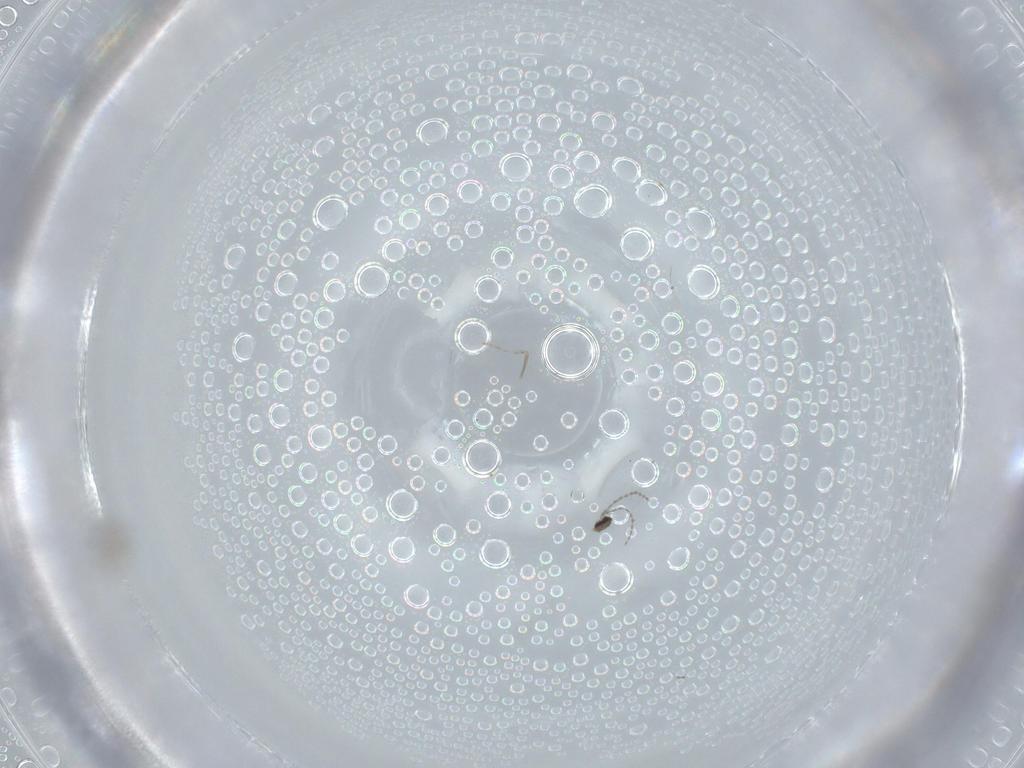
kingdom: Animalia
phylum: Arthropoda
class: Insecta
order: Diptera
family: Cecidomyiidae
